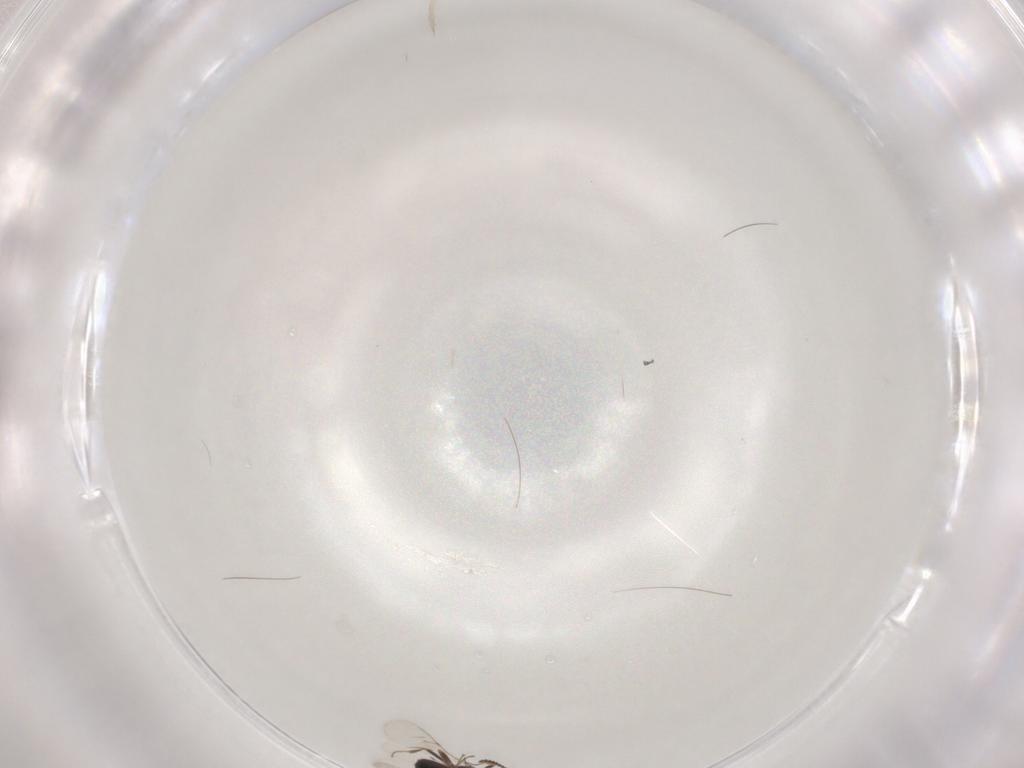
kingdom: Animalia
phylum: Arthropoda
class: Insecta
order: Hymenoptera
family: Scelionidae
